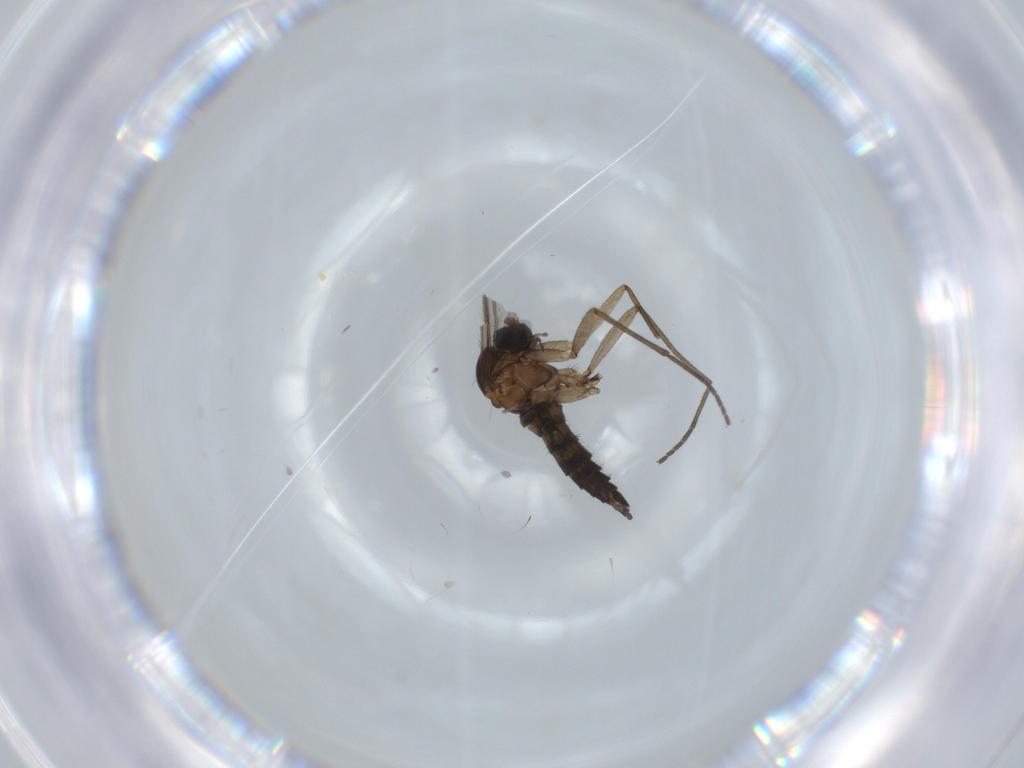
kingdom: Animalia
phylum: Arthropoda
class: Insecta
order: Diptera
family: Sciaridae
